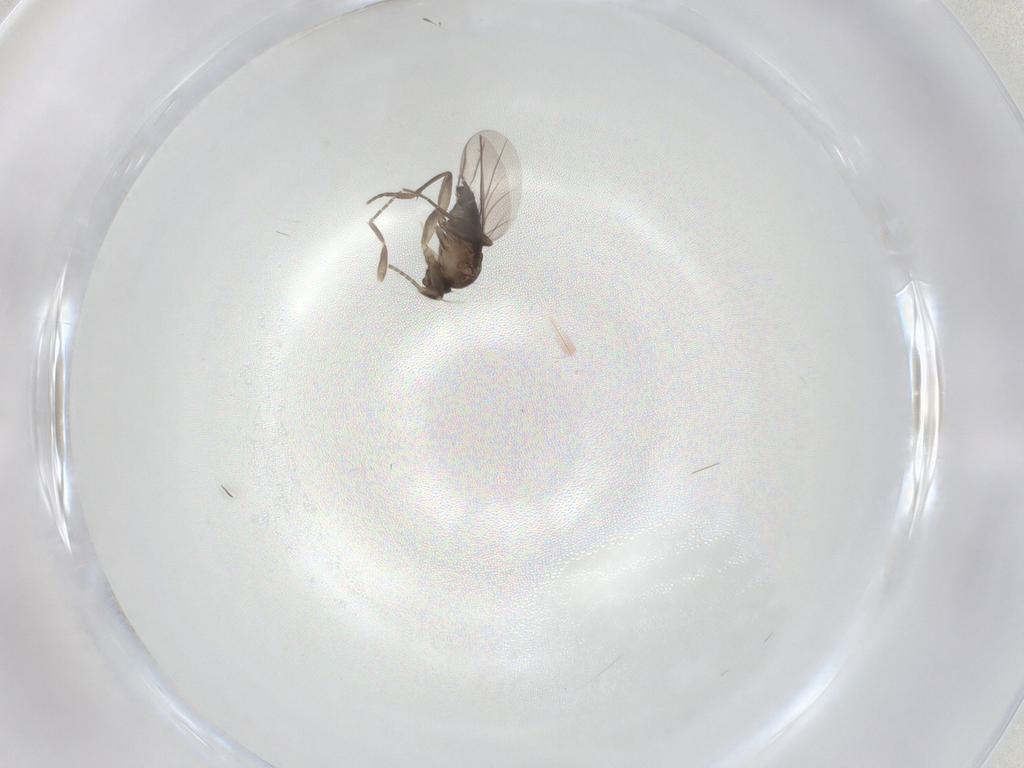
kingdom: Animalia
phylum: Arthropoda
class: Insecta
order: Diptera
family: Phoridae
